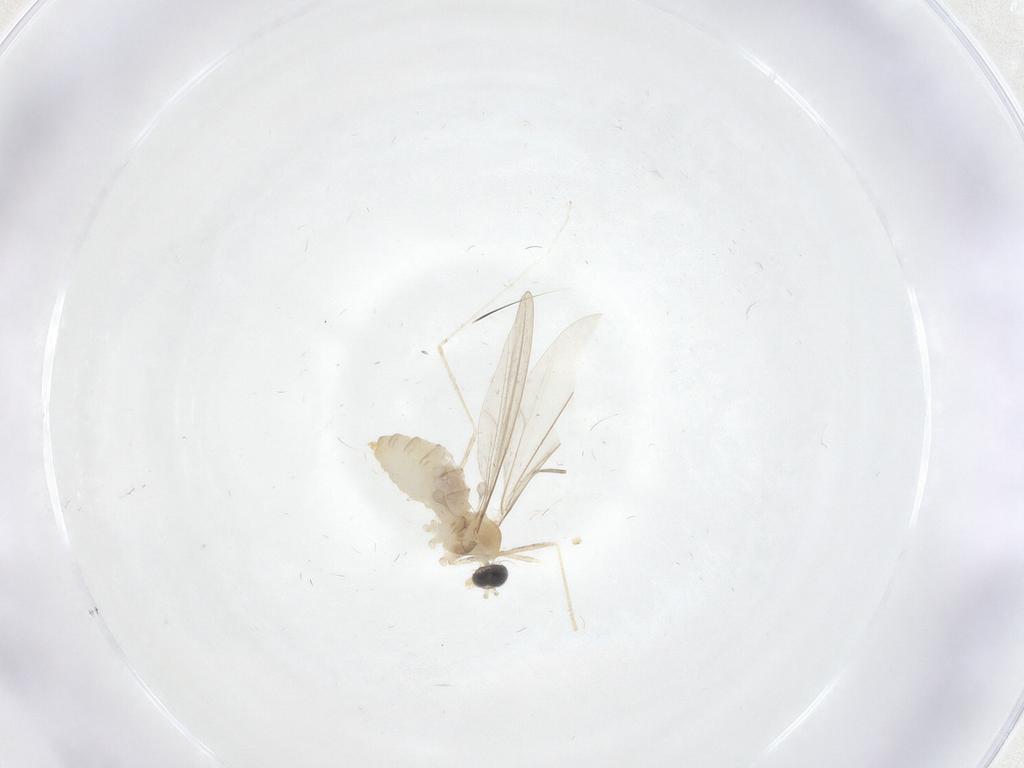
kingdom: Animalia
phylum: Arthropoda
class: Insecta
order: Diptera
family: Cecidomyiidae
